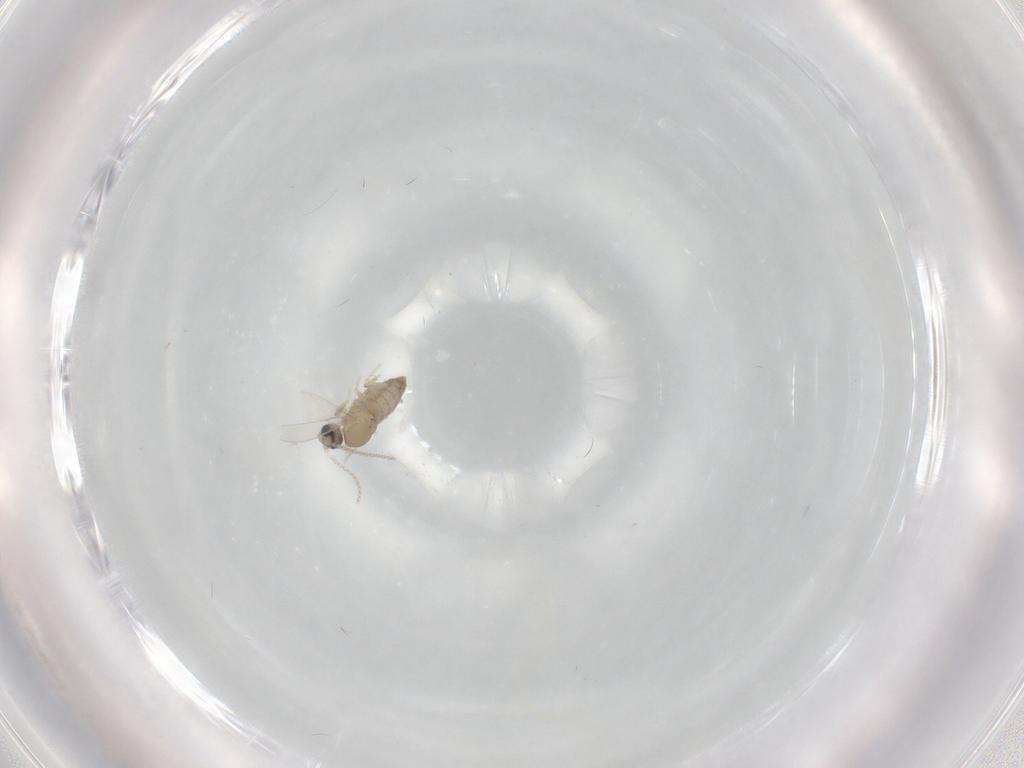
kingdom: Animalia
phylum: Arthropoda
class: Insecta
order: Diptera
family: Cecidomyiidae
